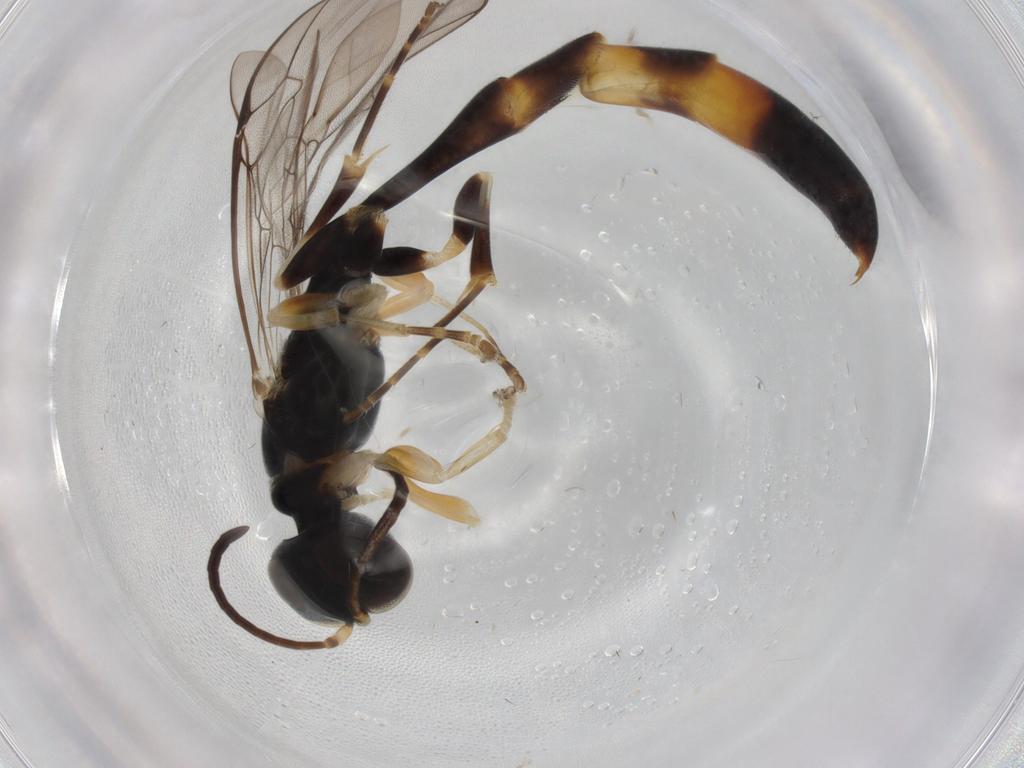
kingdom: Animalia
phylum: Arthropoda
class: Insecta
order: Hymenoptera
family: Crabronidae
